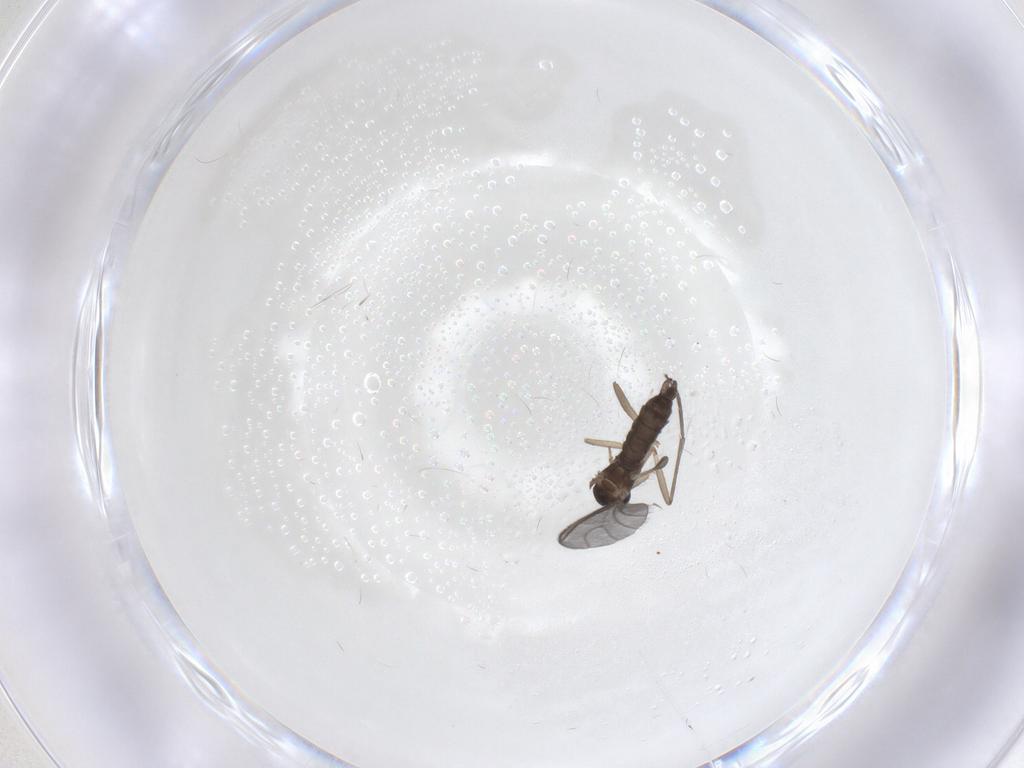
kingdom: Animalia
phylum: Arthropoda
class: Insecta
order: Diptera
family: Sciaridae
